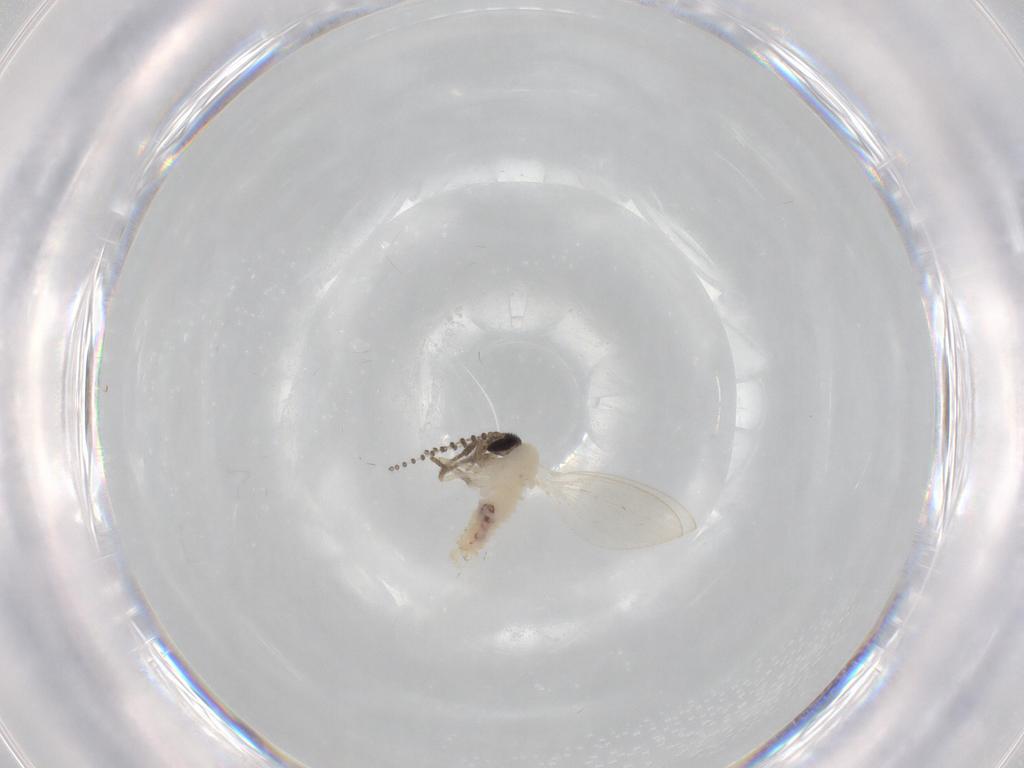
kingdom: Animalia
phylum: Arthropoda
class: Insecta
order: Diptera
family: Psychodidae
